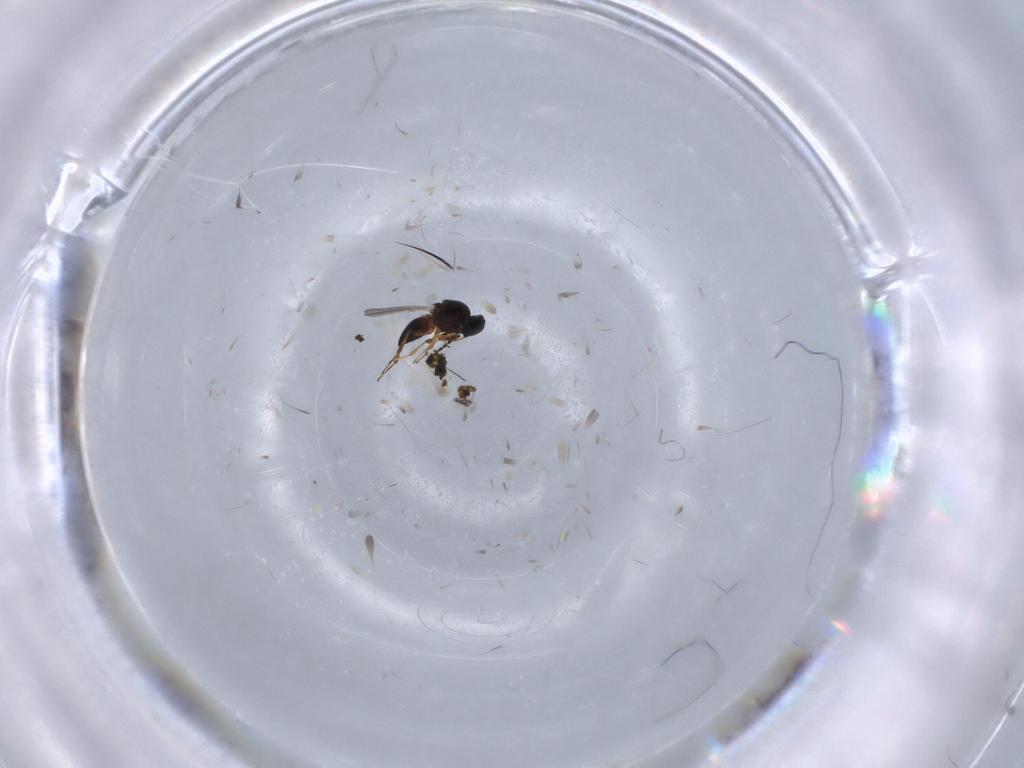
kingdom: Animalia
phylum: Arthropoda
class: Insecta
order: Hymenoptera
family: Platygastridae
